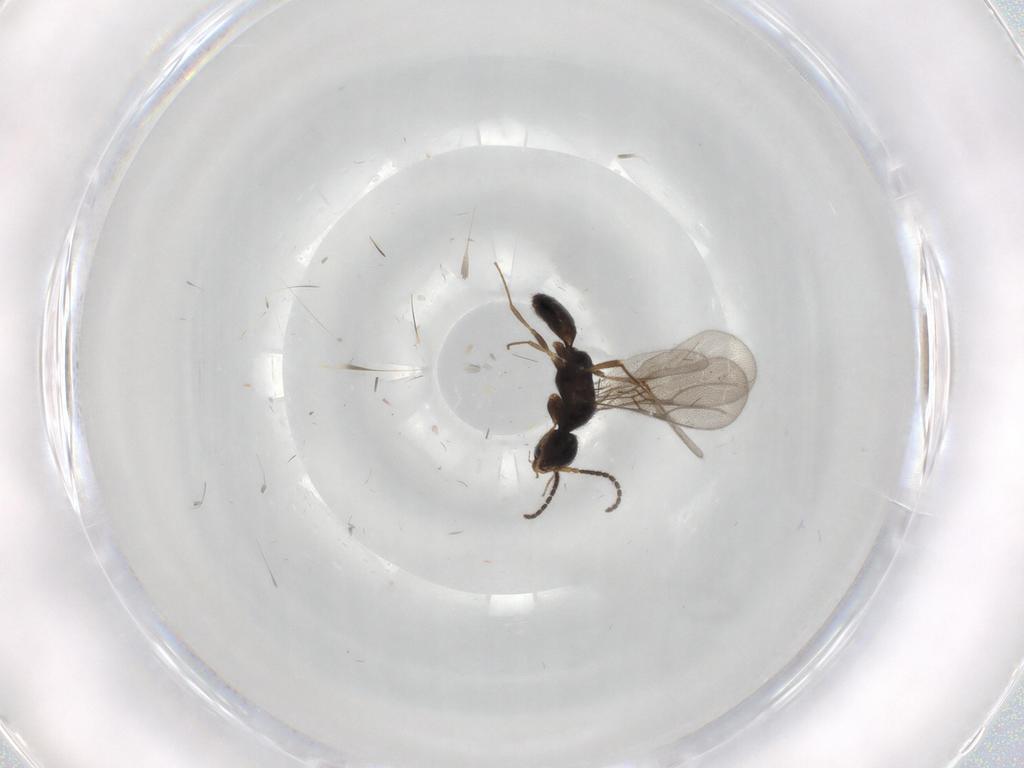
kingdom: Animalia
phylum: Arthropoda
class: Insecta
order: Hymenoptera
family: Bethylidae
